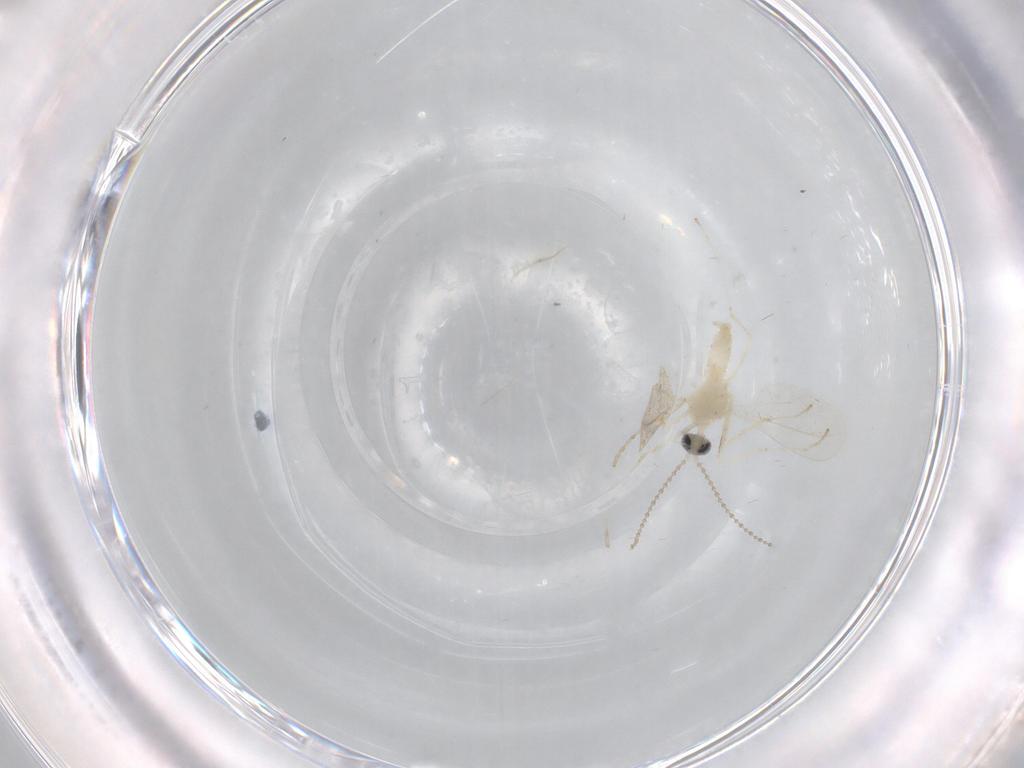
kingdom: Animalia
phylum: Arthropoda
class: Insecta
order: Diptera
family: Cecidomyiidae
